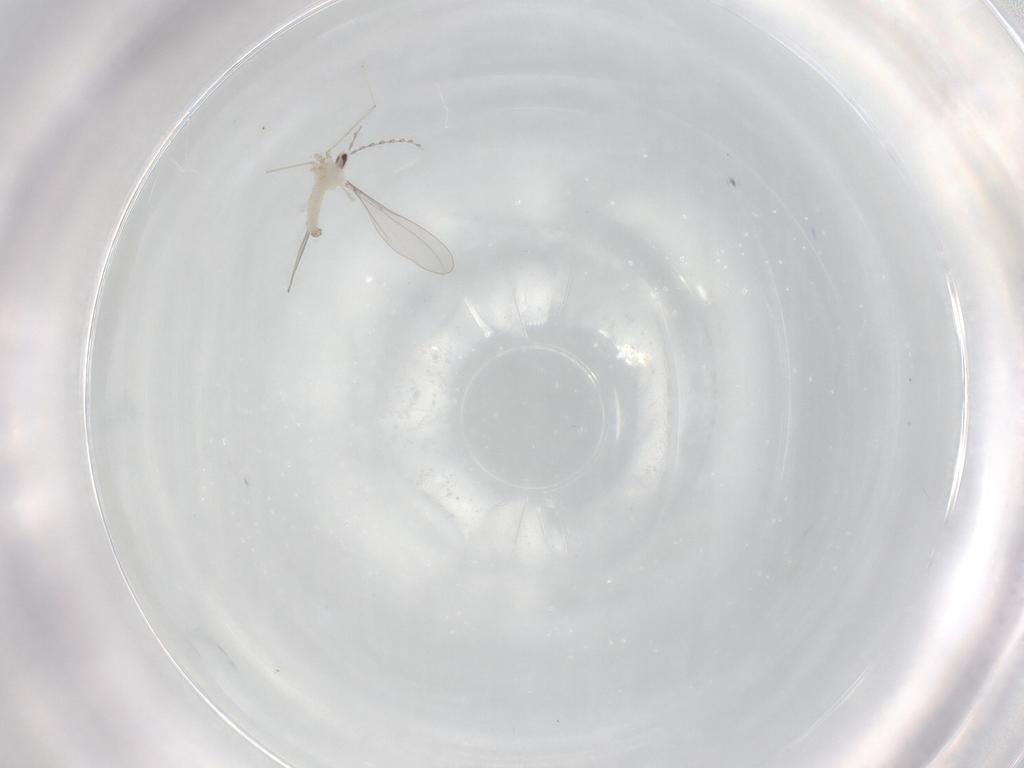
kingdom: Animalia
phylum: Arthropoda
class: Insecta
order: Diptera
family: Cecidomyiidae
